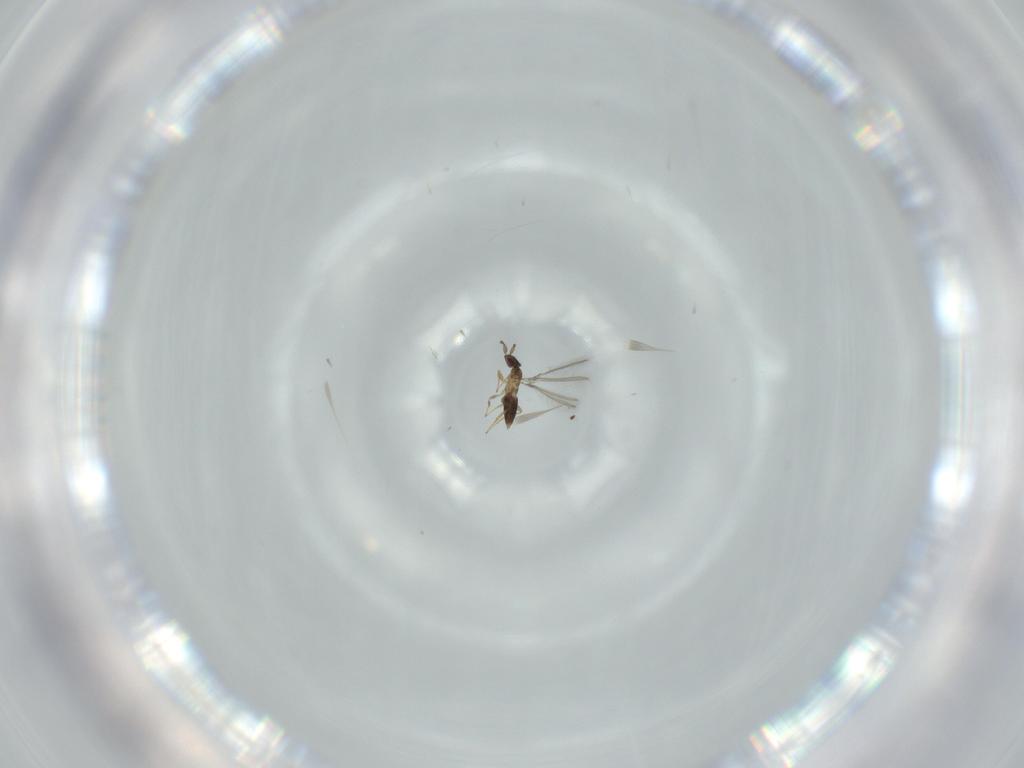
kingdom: Animalia
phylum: Arthropoda
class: Insecta
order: Hymenoptera
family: Mymaridae
